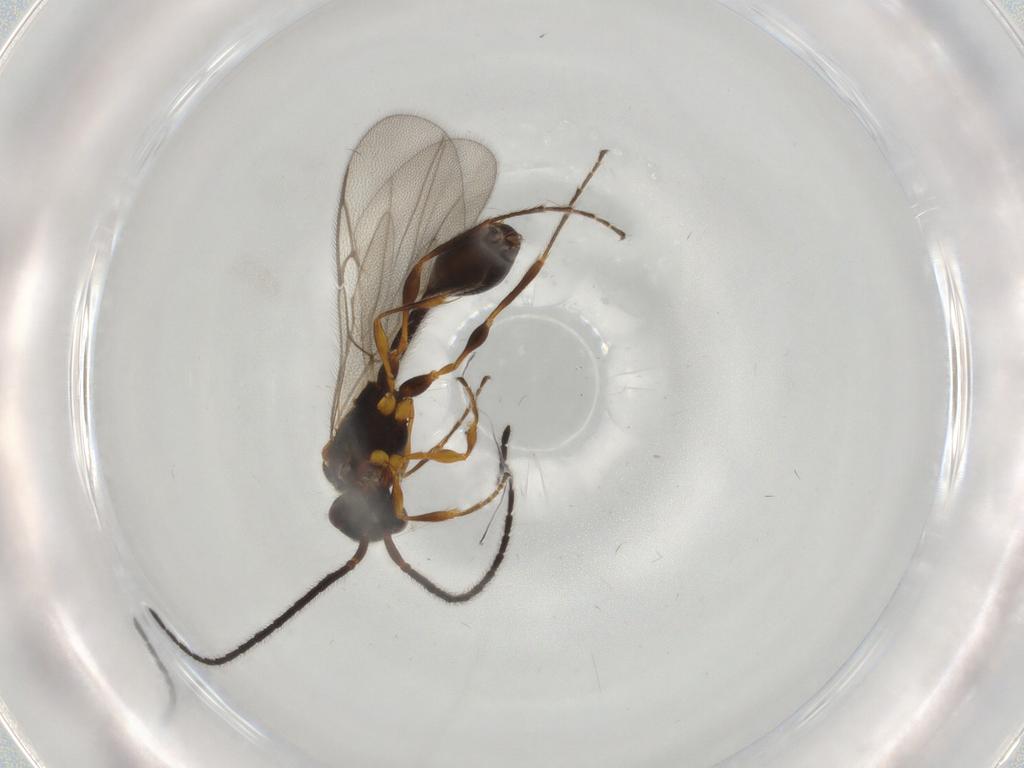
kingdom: Animalia
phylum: Arthropoda
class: Insecta
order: Hymenoptera
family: Diapriidae
